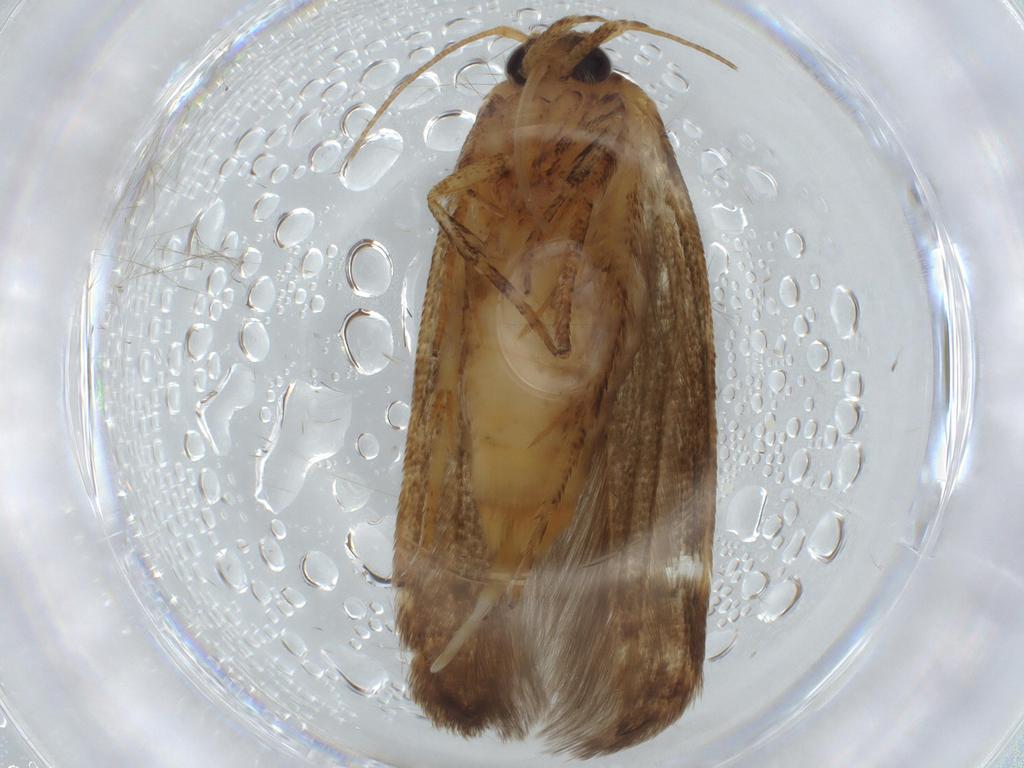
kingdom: Animalia
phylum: Arthropoda
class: Insecta
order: Lepidoptera
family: Coleophoridae
